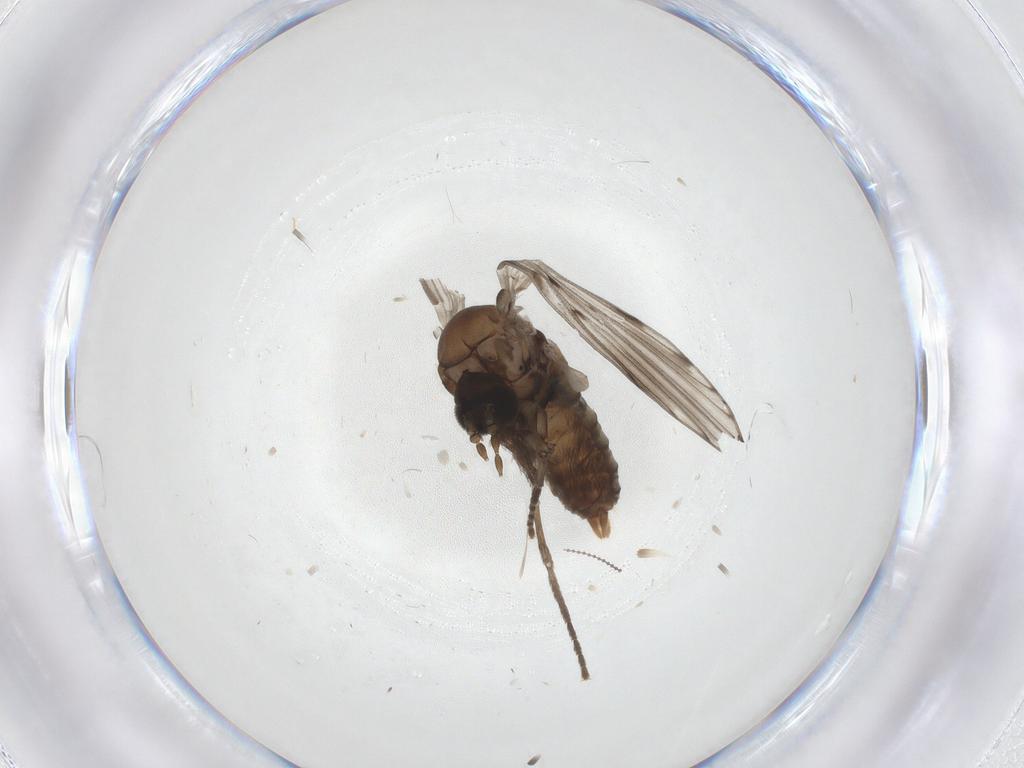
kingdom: Animalia
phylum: Arthropoda
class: Insecta
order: Diptera
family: Psychodidae
